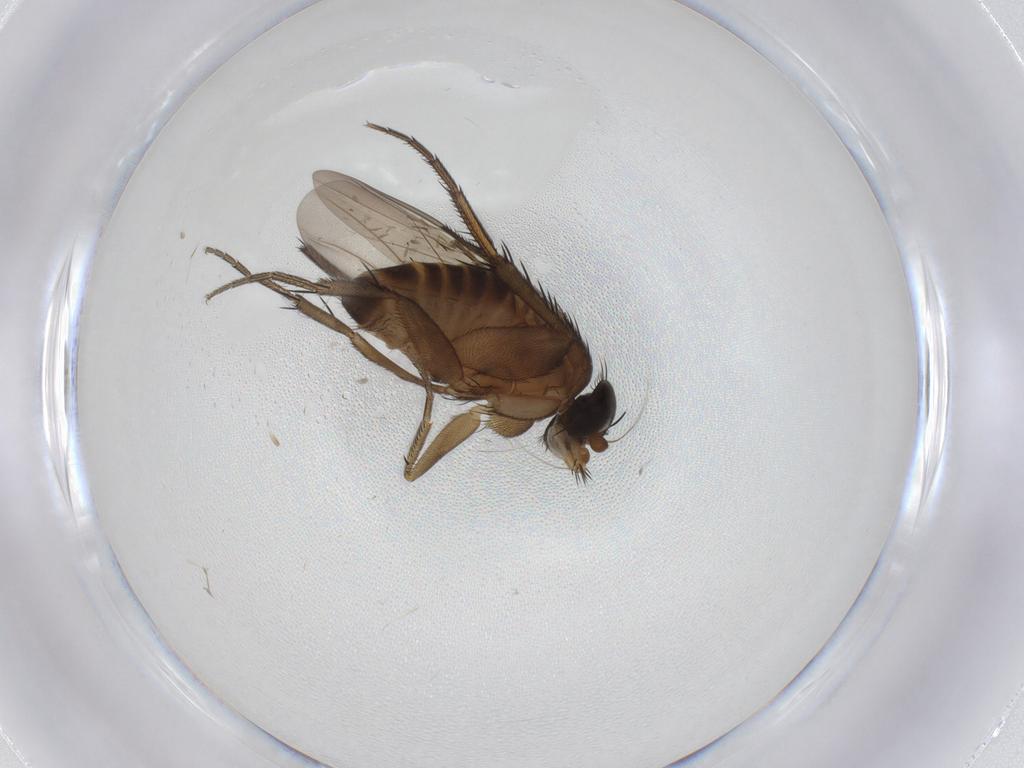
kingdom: Animalia
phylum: Arthropoda
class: Insecta
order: Diptera
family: Phoridae
